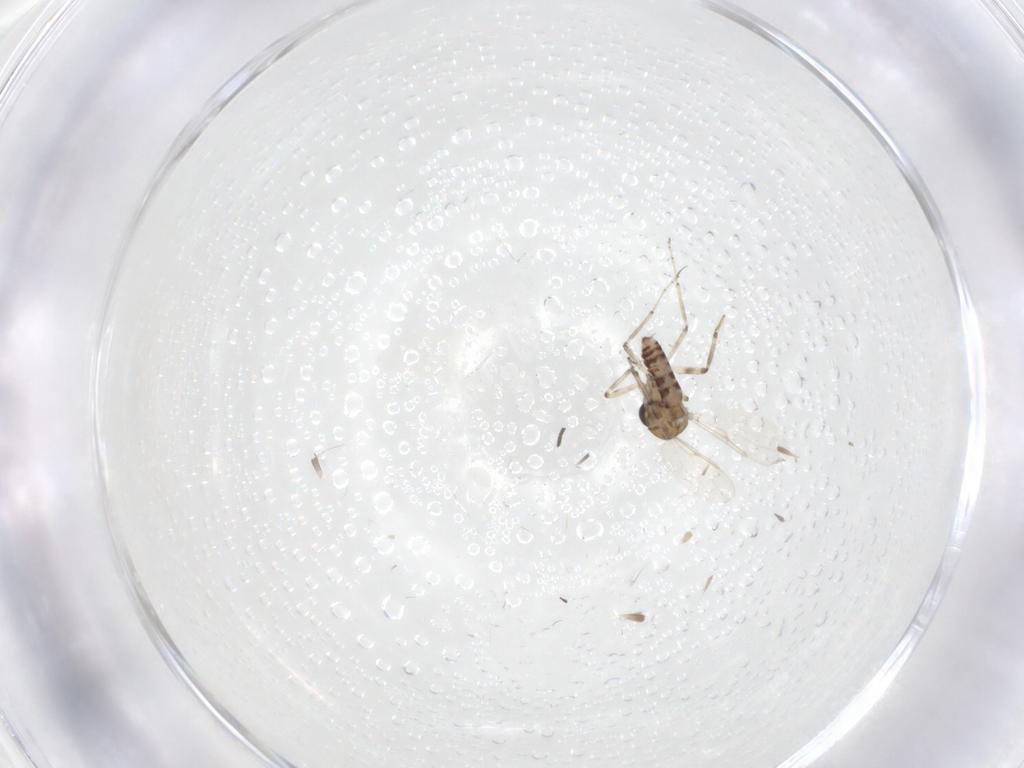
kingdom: Animalia
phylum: Arthropoda
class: Insecta
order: Diptera
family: Ceratopogonidae
